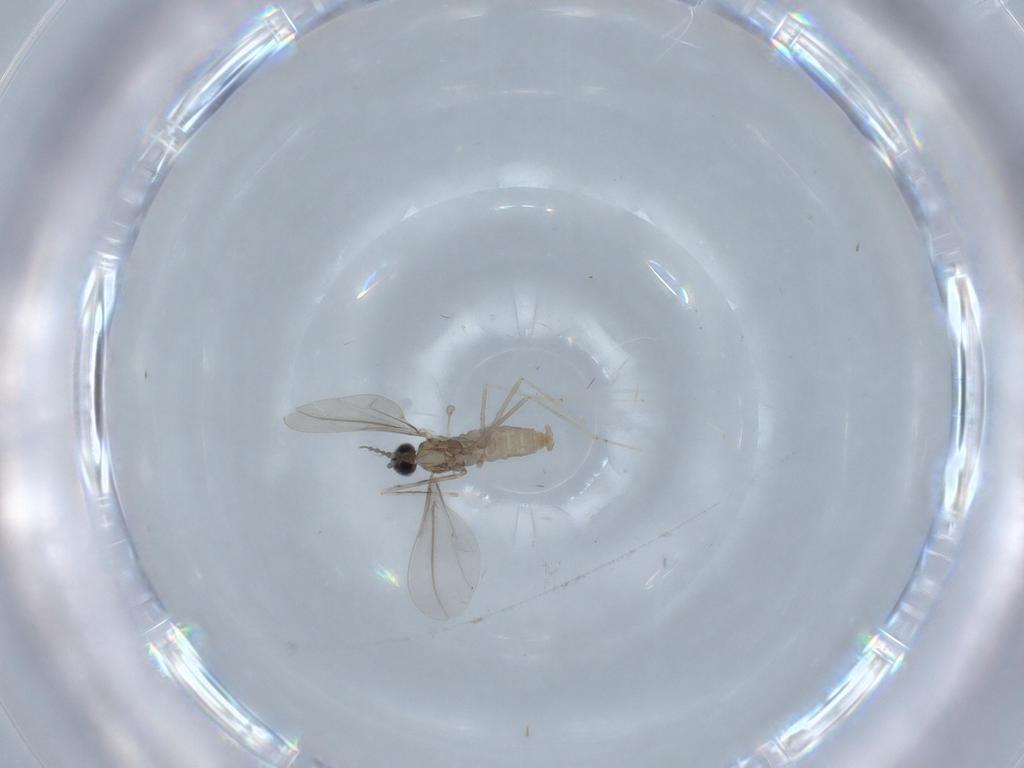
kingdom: Animalia
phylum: Arthropoda
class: Insecta
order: Diptera
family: Cecidomyiidae
